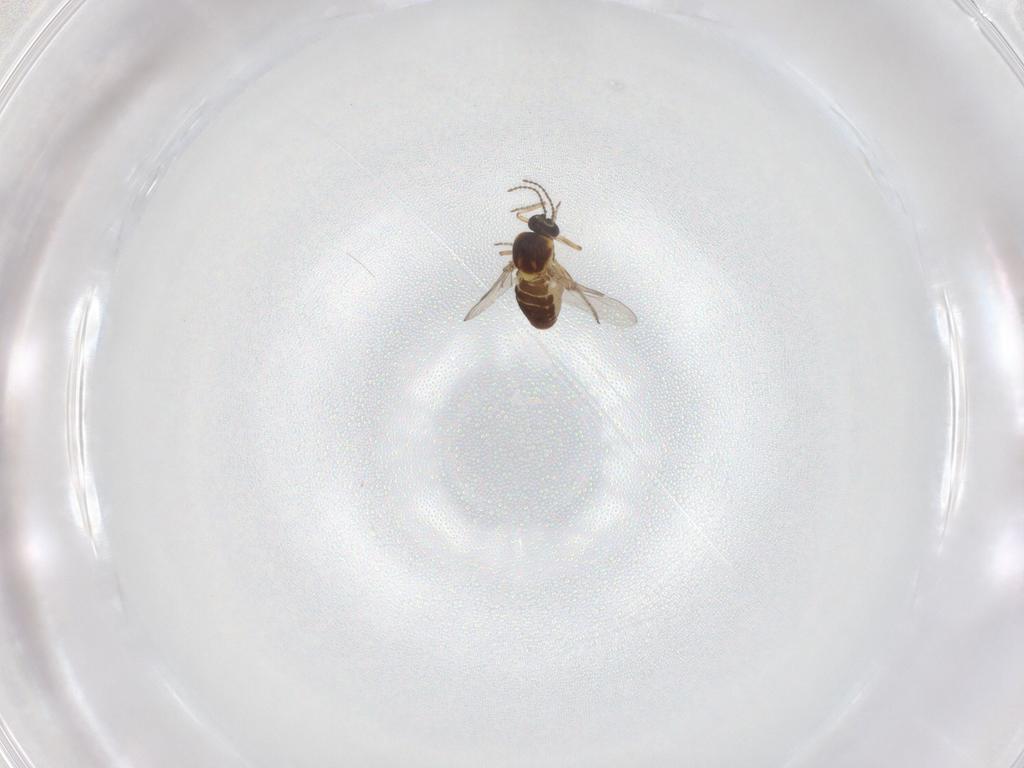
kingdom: Animalia
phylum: Arthropoda
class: Insecta
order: Diptera
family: Ceratopogonidae
